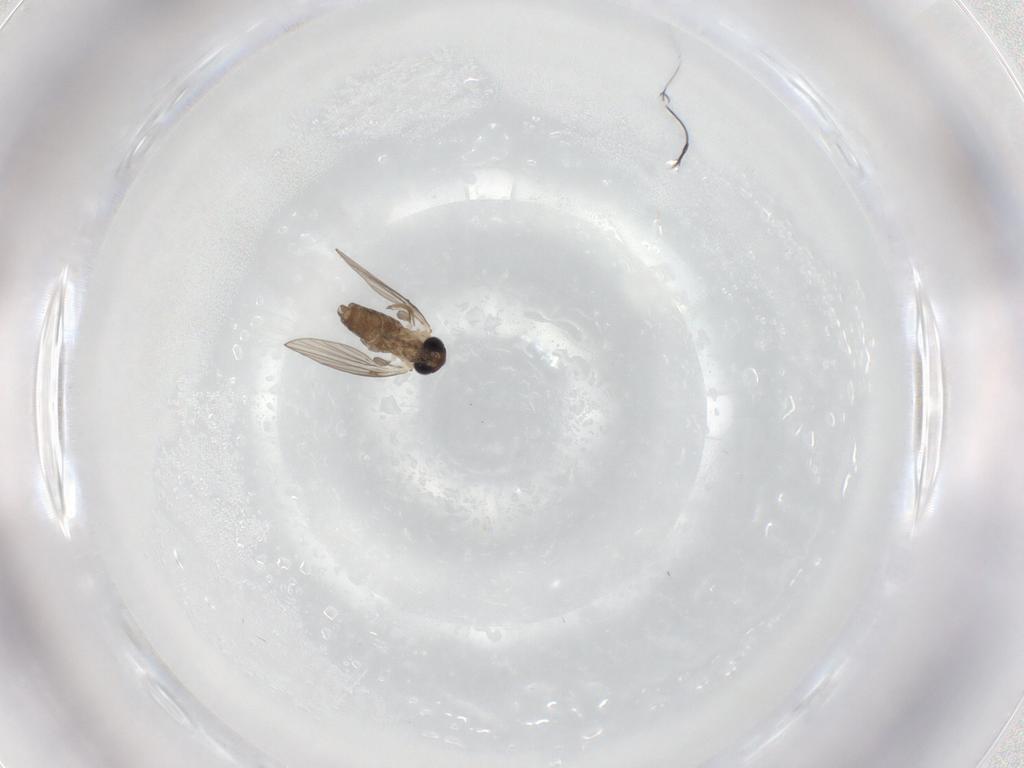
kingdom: Animalia
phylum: Arthropoda
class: Insecta
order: Diptera
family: Psychodidae
